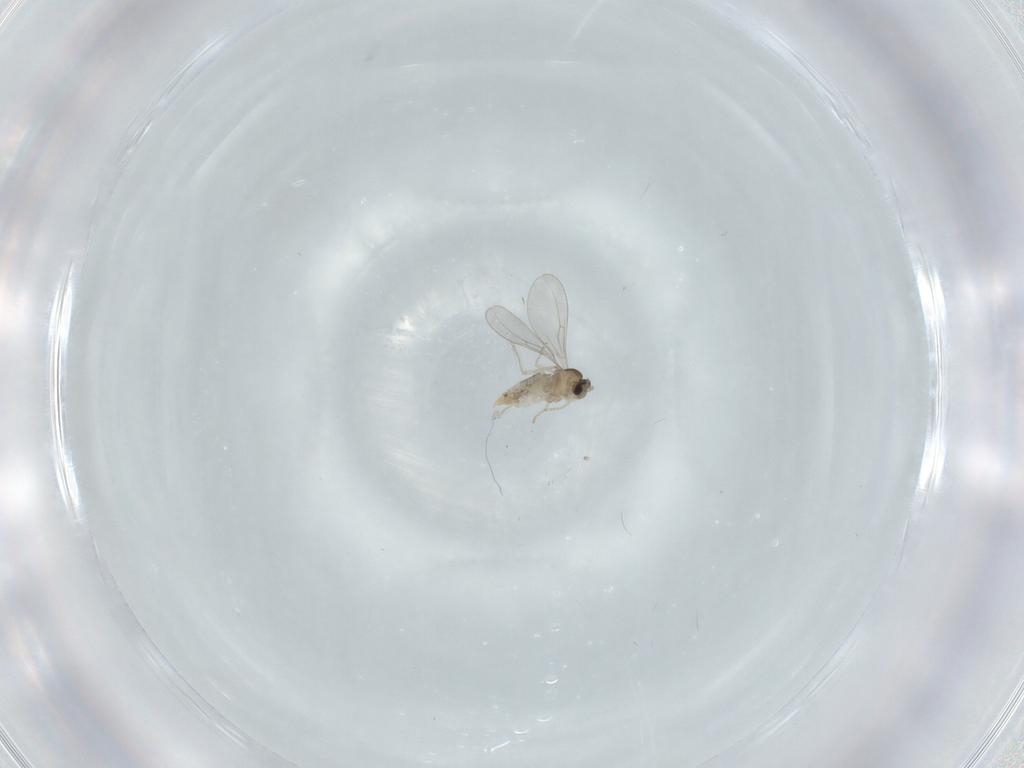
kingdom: Animalia
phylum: Arthropoda
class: Insecta
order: Diptera
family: Cecidomyiidae
